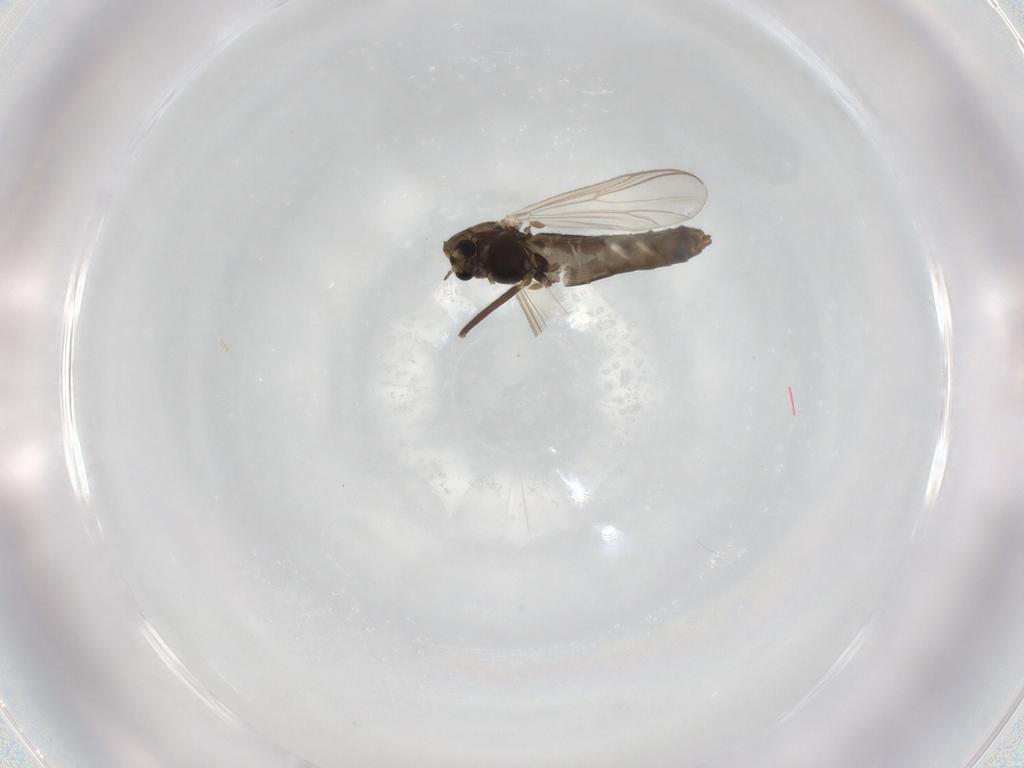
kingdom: Animalia
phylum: Arthropoda
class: Insecta
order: Diptera
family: Chironomidae
